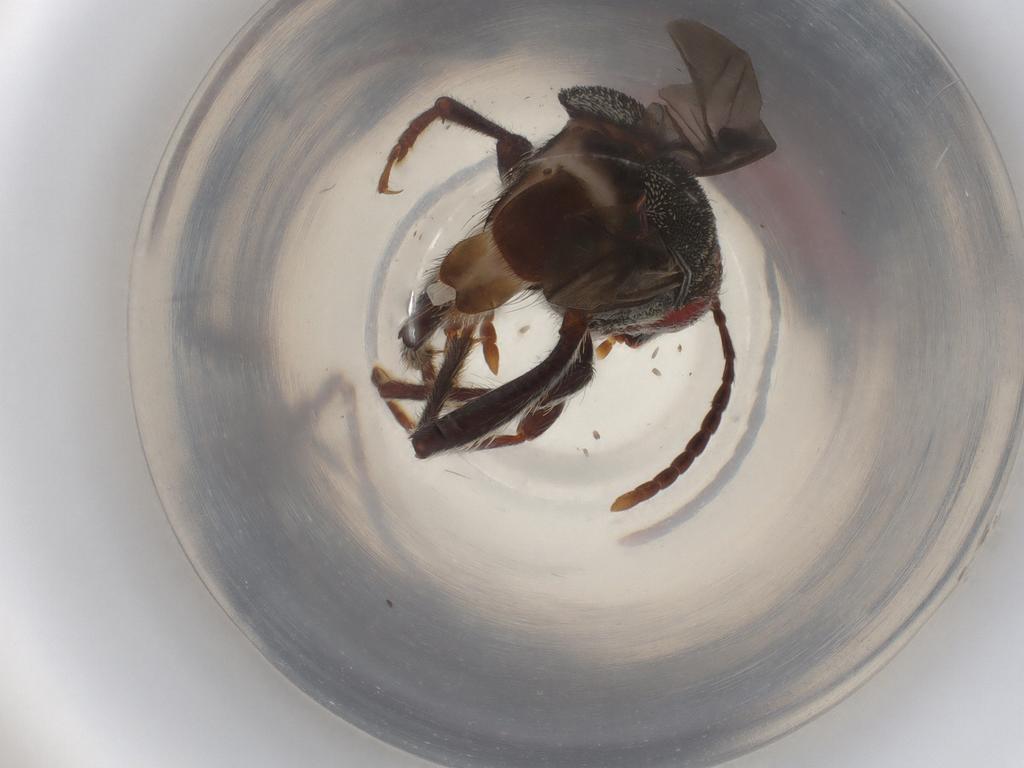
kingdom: Animalia
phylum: Arthropoda
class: Insecta
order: Coleoptera
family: Cerambycidae
